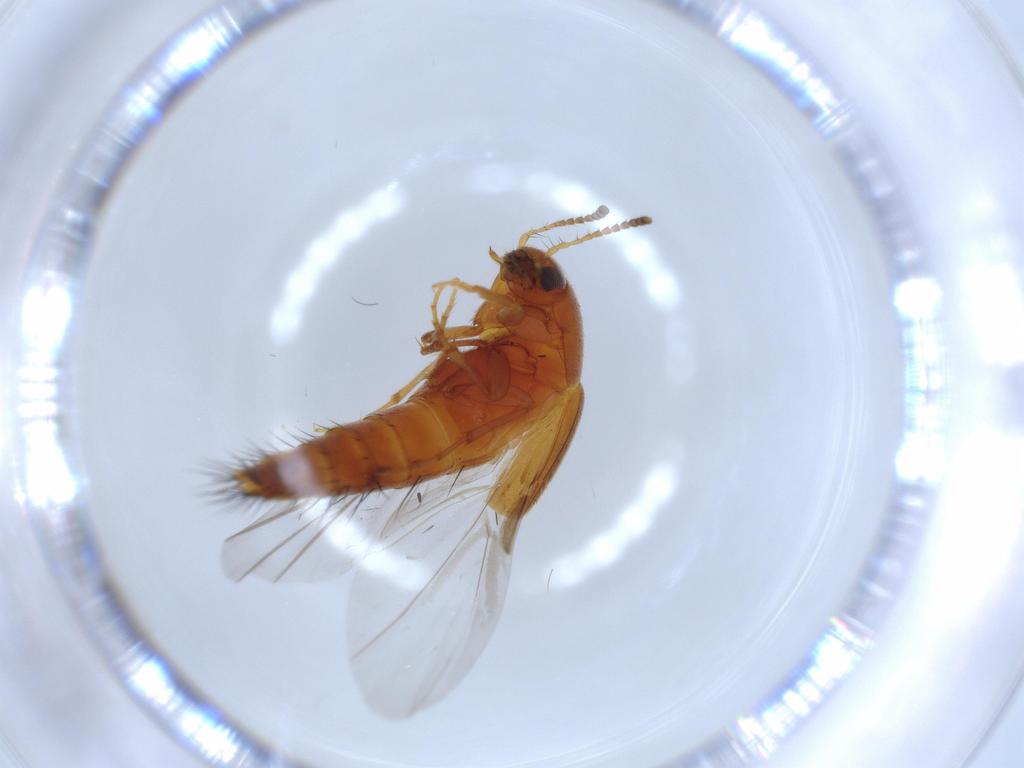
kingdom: Animalia
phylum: Arthropoda
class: Insecta
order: Coleoptera
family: Staphylinidae
